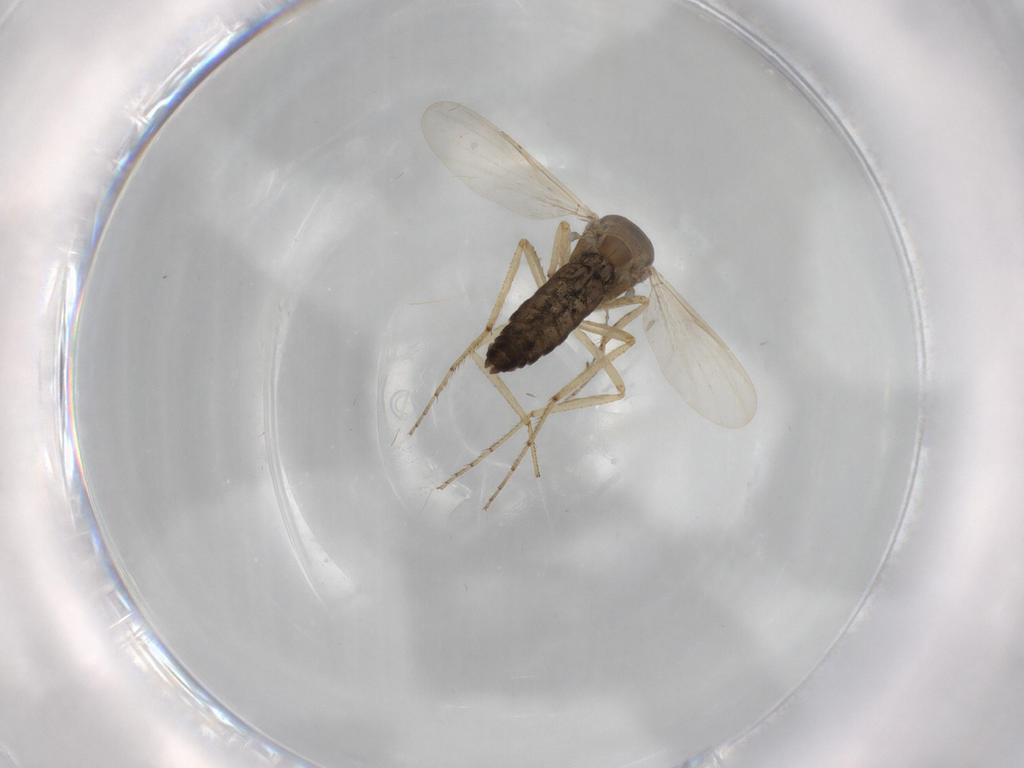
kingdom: Animalia
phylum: Arthropoda
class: Insecta
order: Diptera
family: Ceratopogonidae
